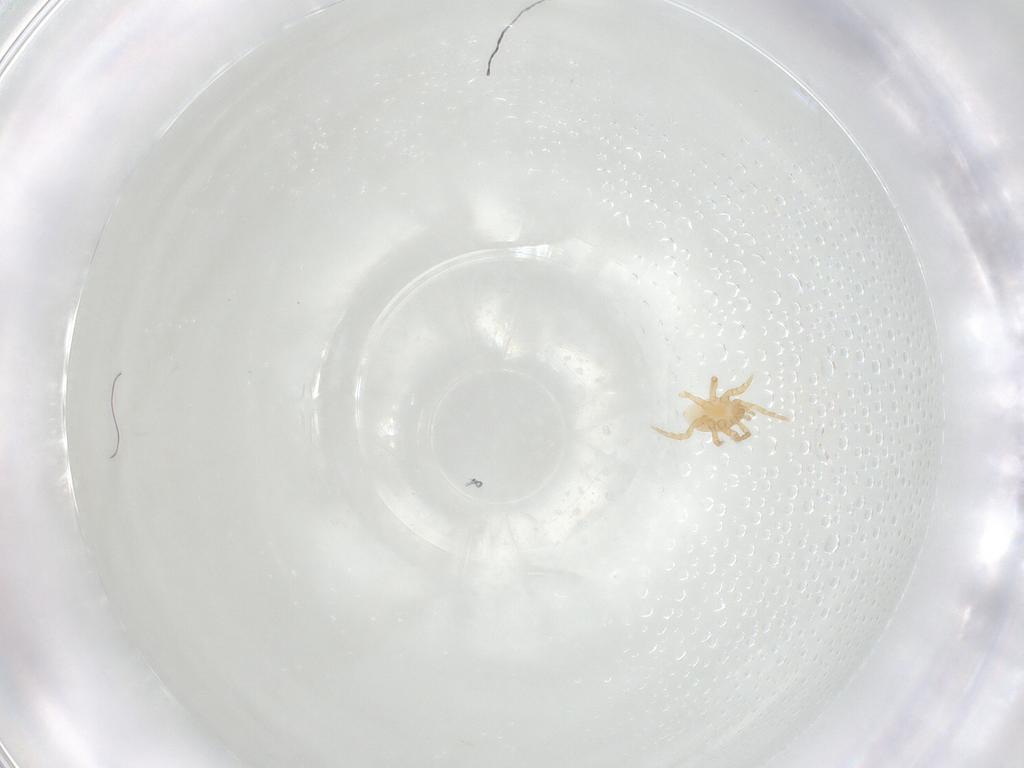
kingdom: Animalia
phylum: Arthropoda
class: Arachnida
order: Mesostigmata
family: Parasitidae
